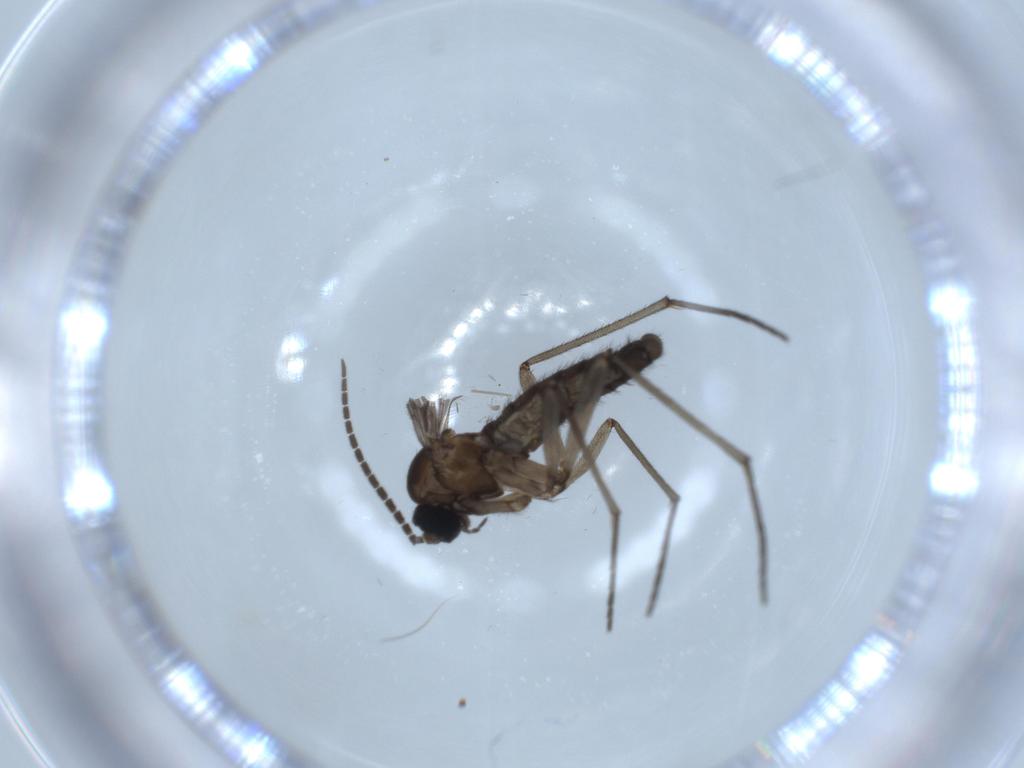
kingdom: Animalia
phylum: Arthropoda
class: Insecta
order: Diptera
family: Sciaridae
